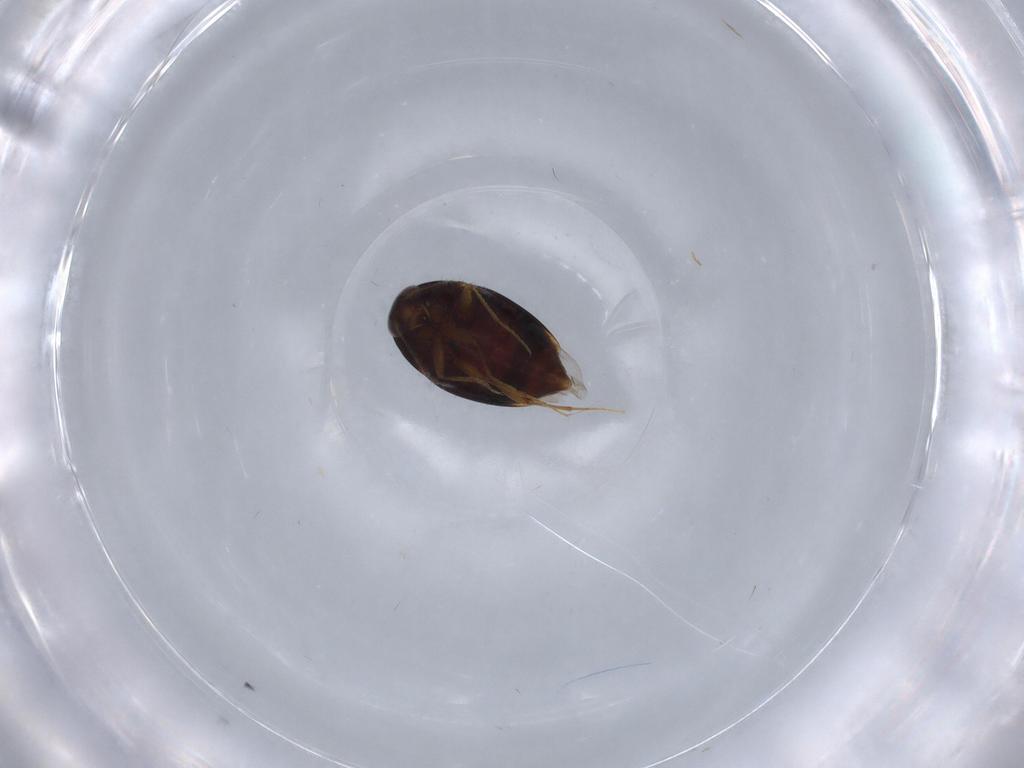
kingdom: Animalia
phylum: Arthropoda
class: Insecta
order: Coleoptera
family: Staphylinidae
